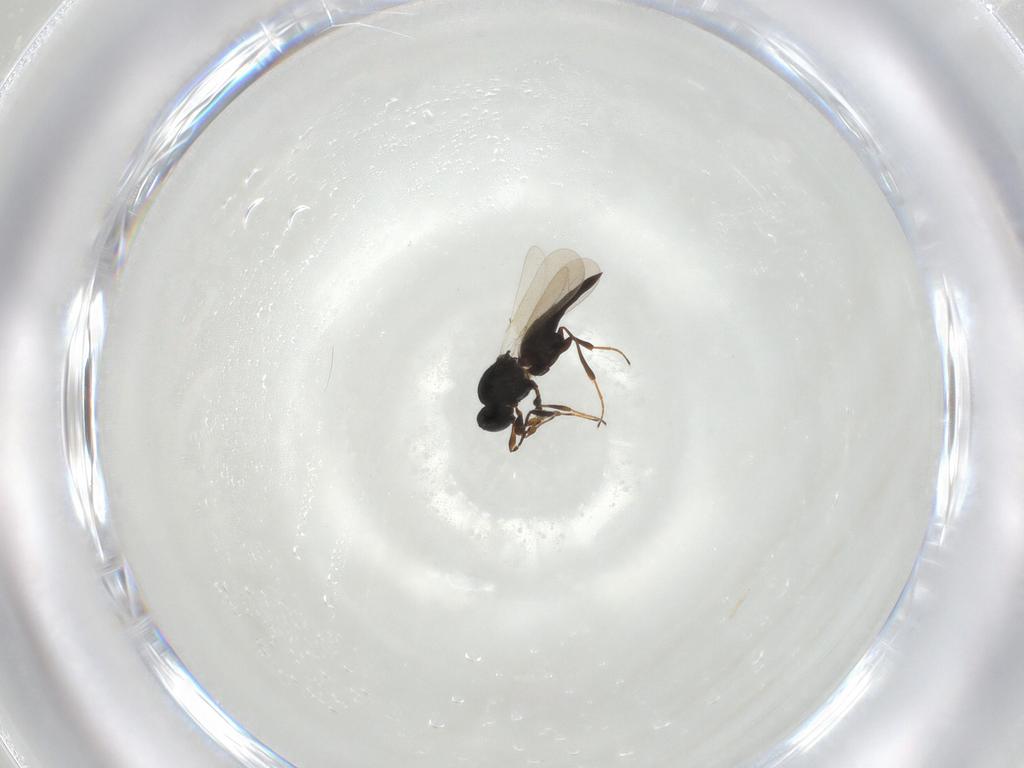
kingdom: Animalia
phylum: Arthropoda
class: Insecta
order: Hymenoptera
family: Platygastridae
